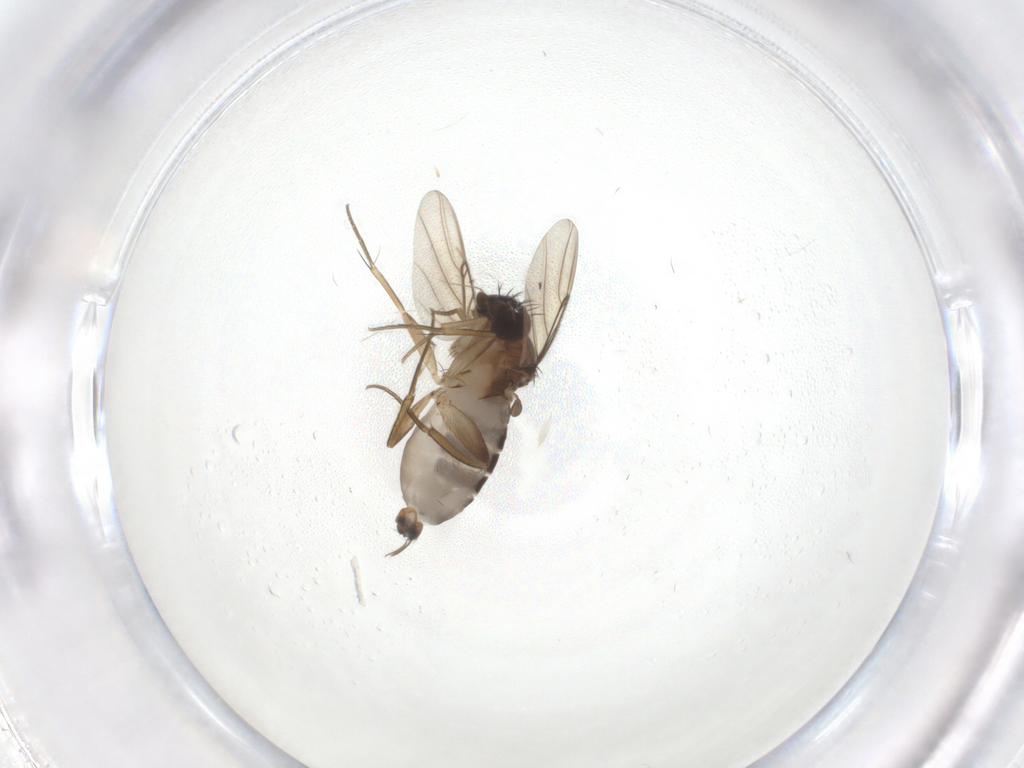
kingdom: Animalia
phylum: Arthropoda
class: Insecta
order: Diptera
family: Phoridae
